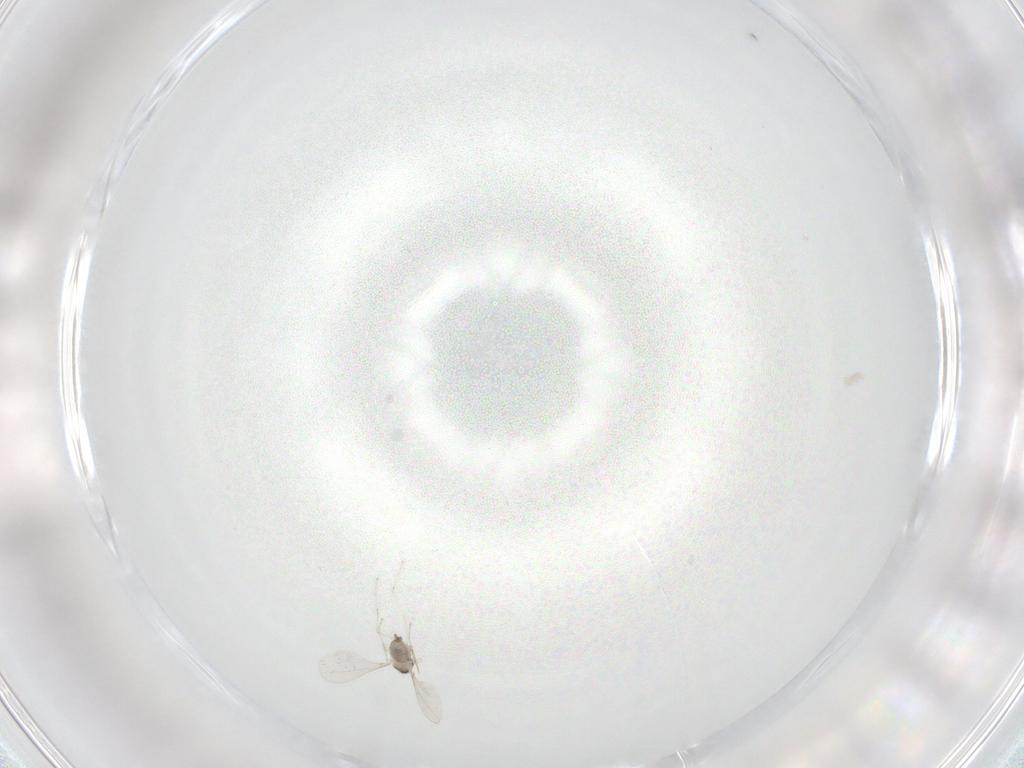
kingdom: Animalia
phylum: Arthropoda
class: Insecta
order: Diptera
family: Chironomidae
